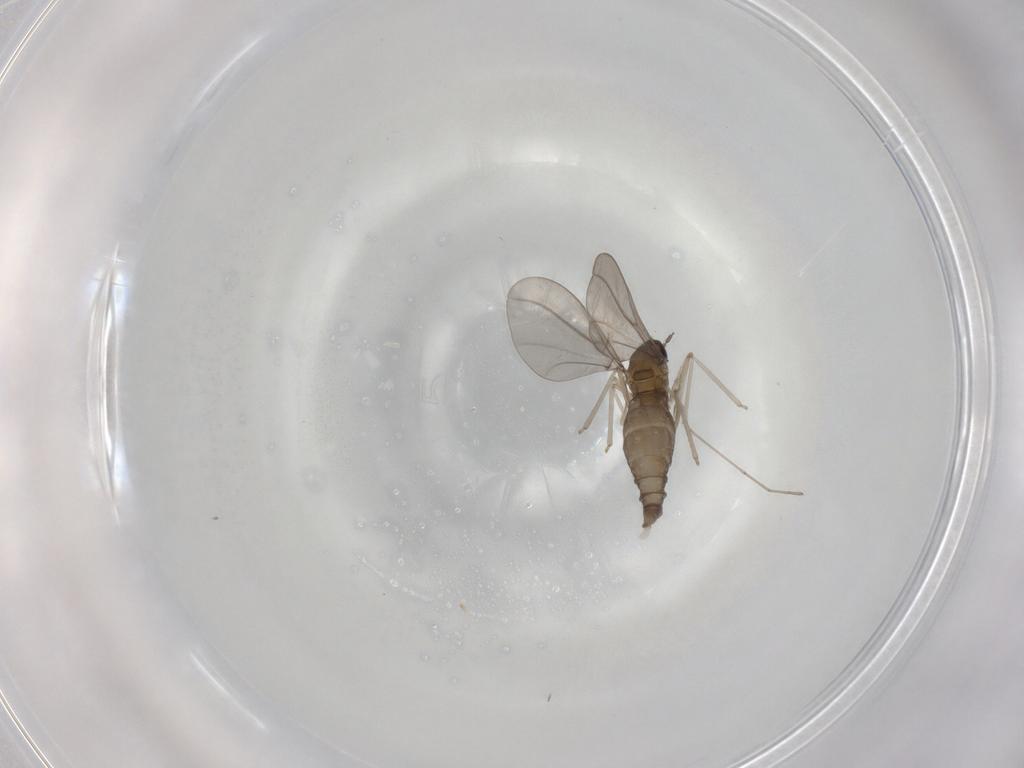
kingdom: Animalia
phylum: Arthropoda
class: Insecta
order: Diptera
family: Cecidomyiidae
